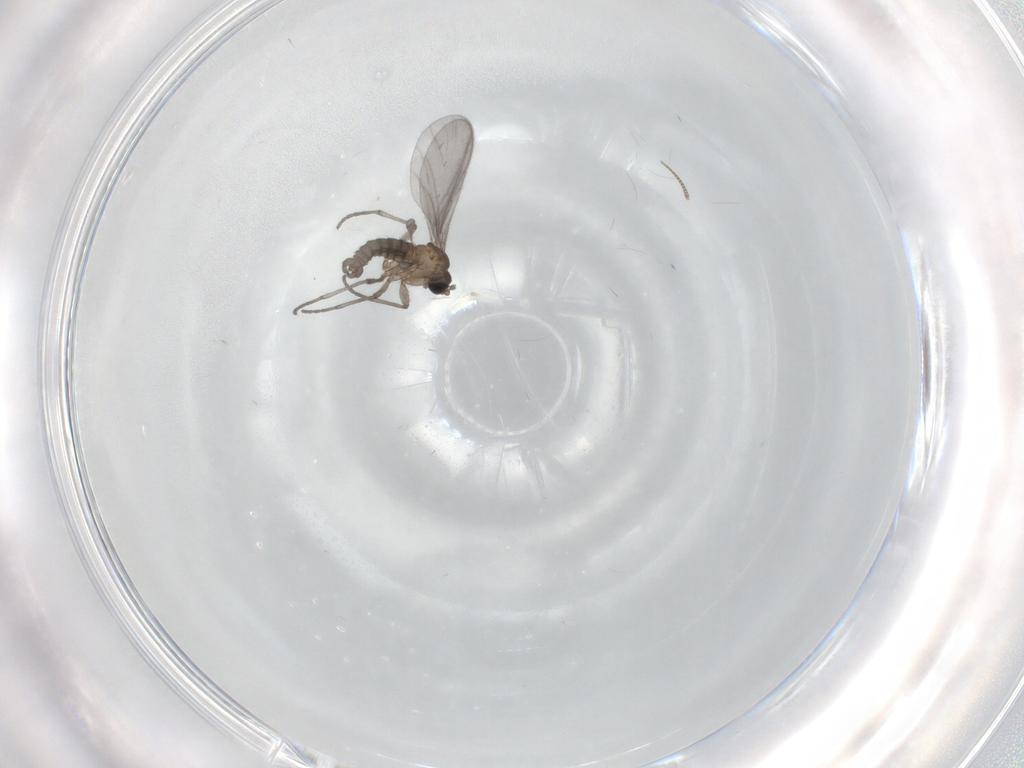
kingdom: Animalia
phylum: Arthropoda
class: Insecta
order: Diptera
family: Chironomidae
